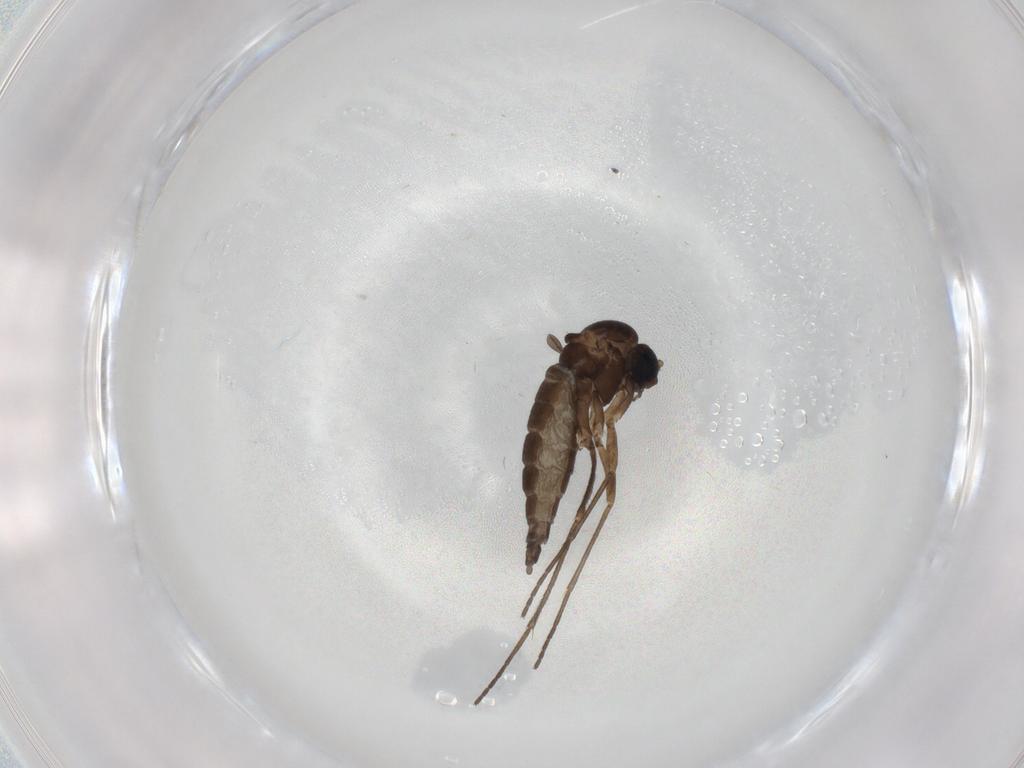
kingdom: Animalia
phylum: Arthropoda
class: Insecta
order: Diptera
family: Sciaridae
